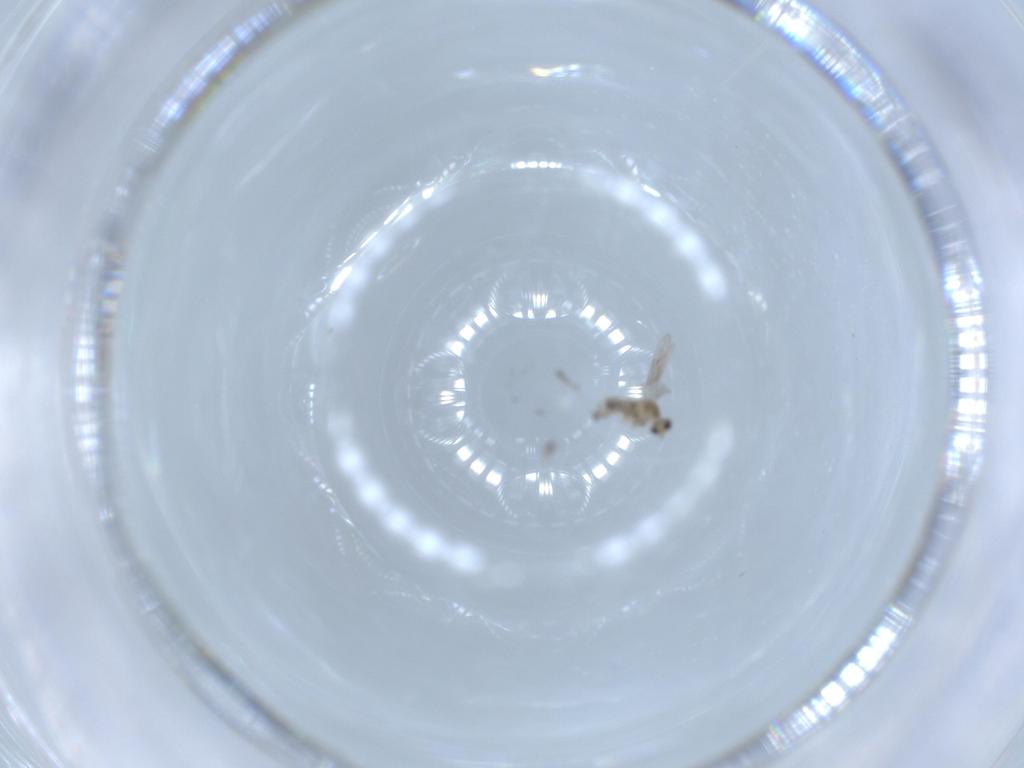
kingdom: Animalia
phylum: Arthropoda
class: Insecta
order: Diptera
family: Cecidomyiidae
